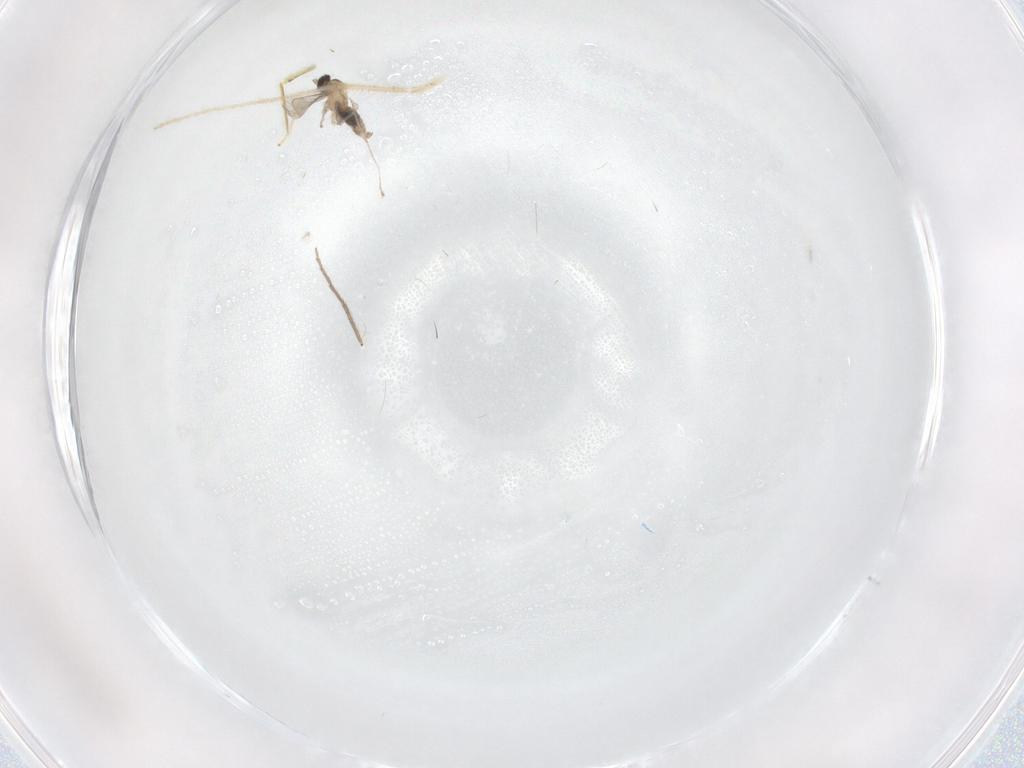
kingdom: Animalia
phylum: Arthropoda
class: Insecta
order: Diptera
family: Chironomidae
